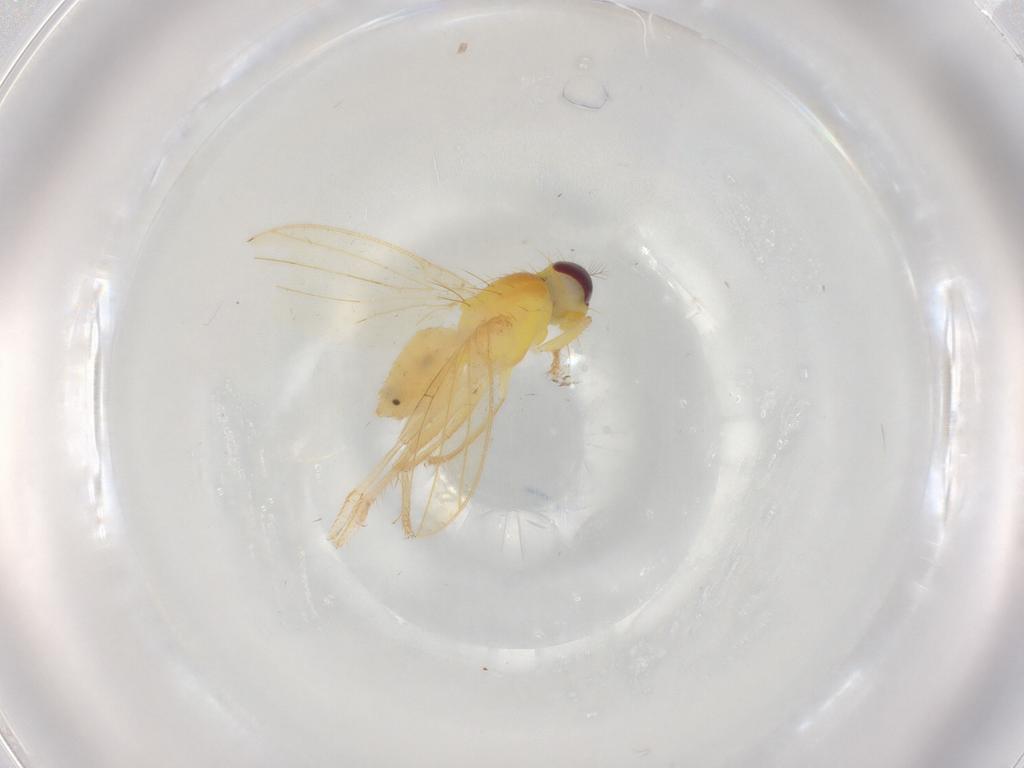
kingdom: Animalia
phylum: Arthropoda
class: Insecta
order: Diptera
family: Periscelididae
